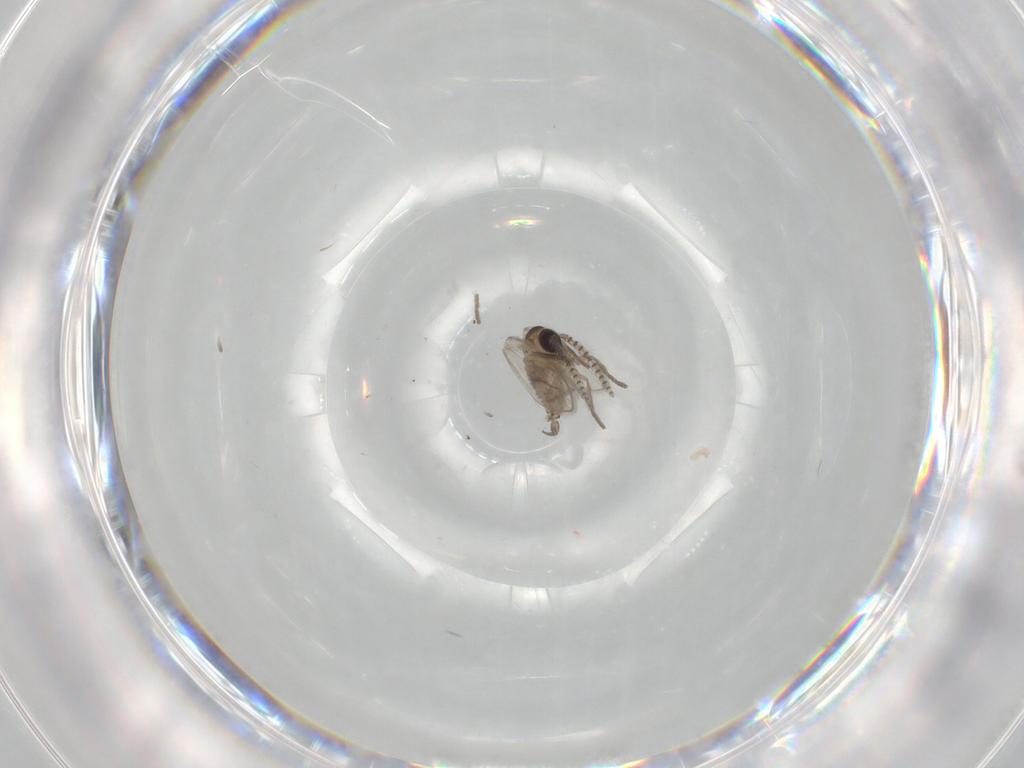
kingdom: Animalia
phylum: Arthropoda
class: Insecta
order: Diptera
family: Psychodidae
